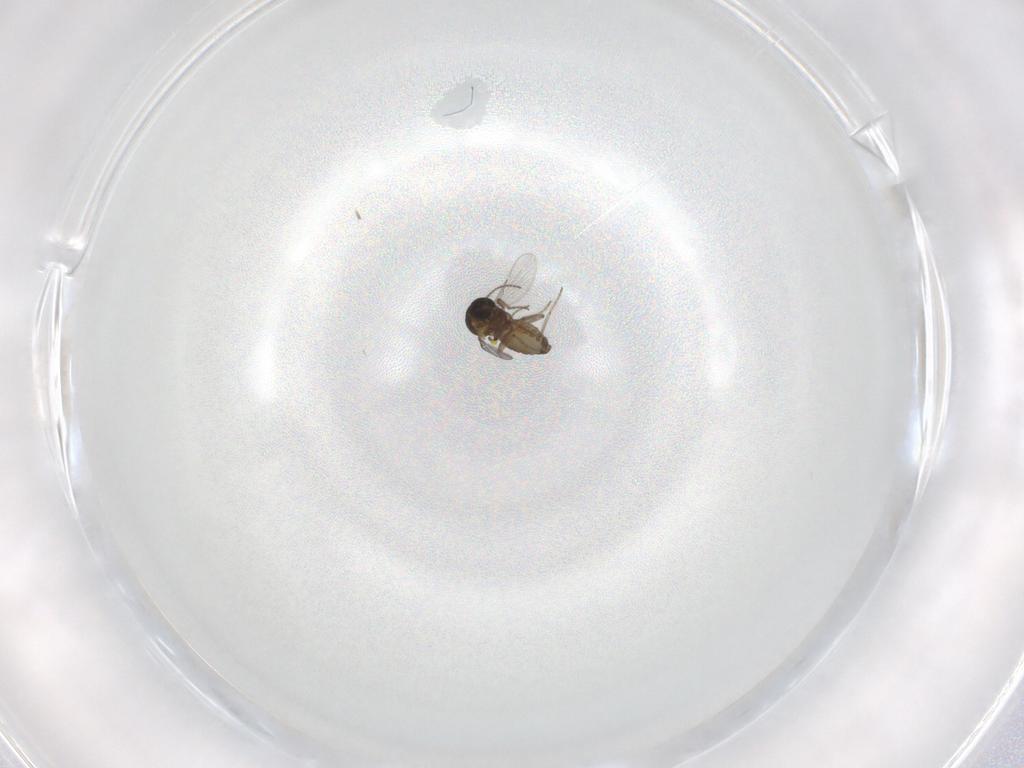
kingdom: Animalia
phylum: Arthropoda
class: Insecta
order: Diptera
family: Ceratopogonidae
